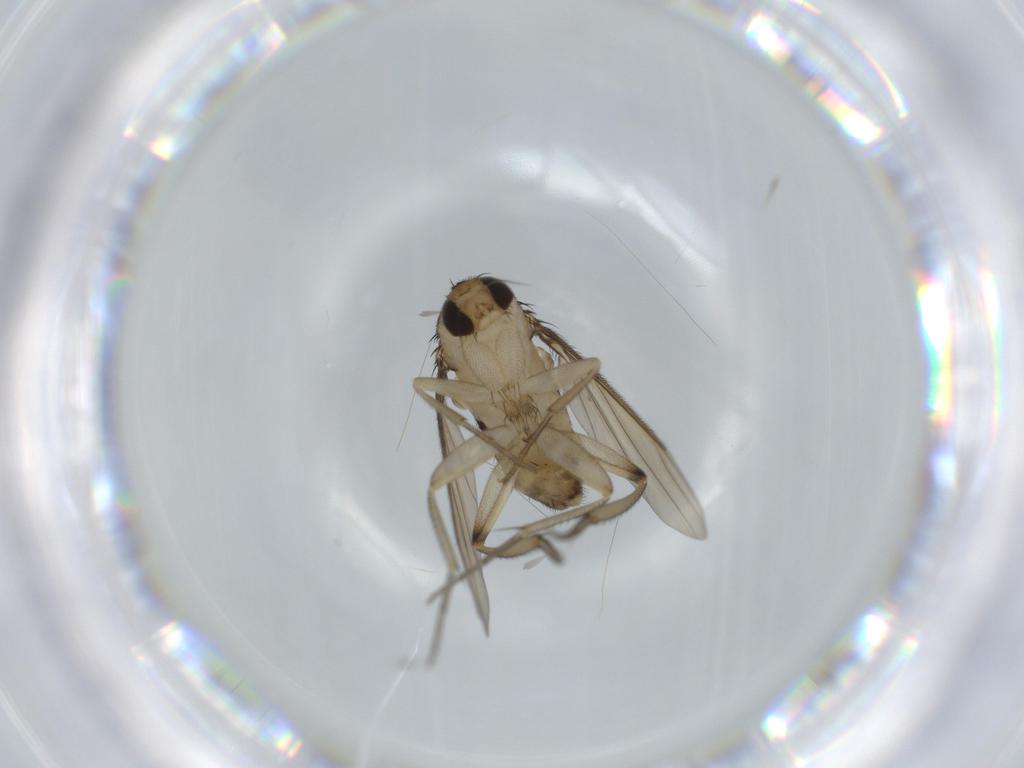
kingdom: Animalia
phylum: Arthropoda
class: Insecta
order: Diptera
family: Phoridae
